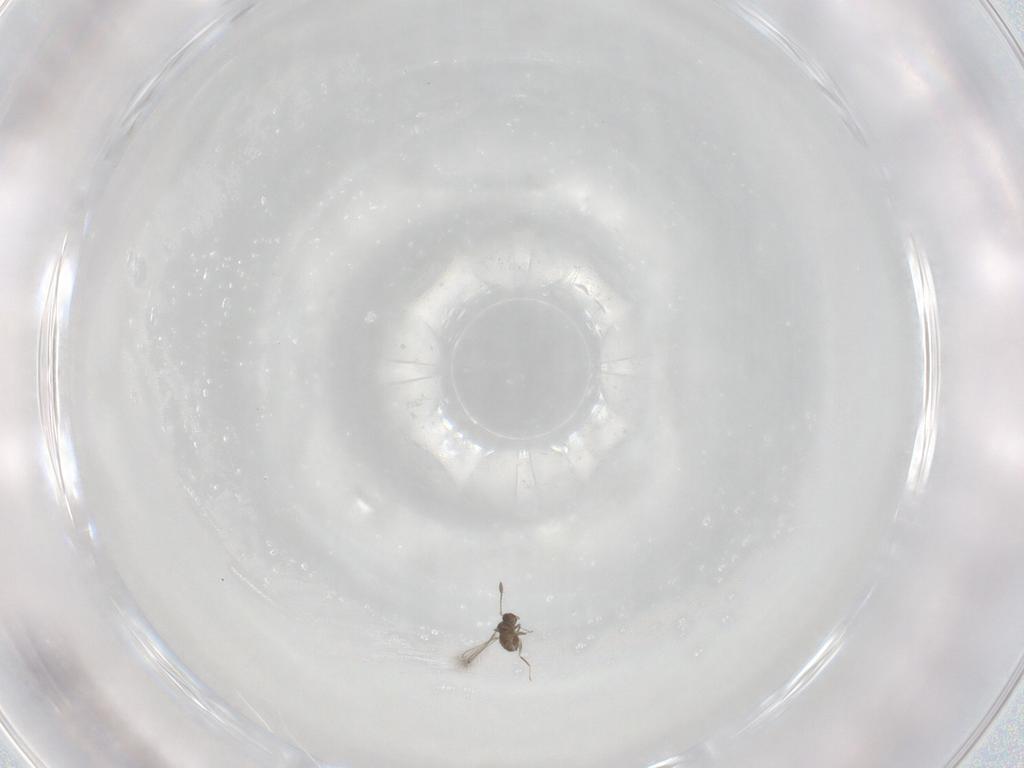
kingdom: Animalia
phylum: Arthropoda
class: Insecta
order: Hymenoptera
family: Mymaridae
